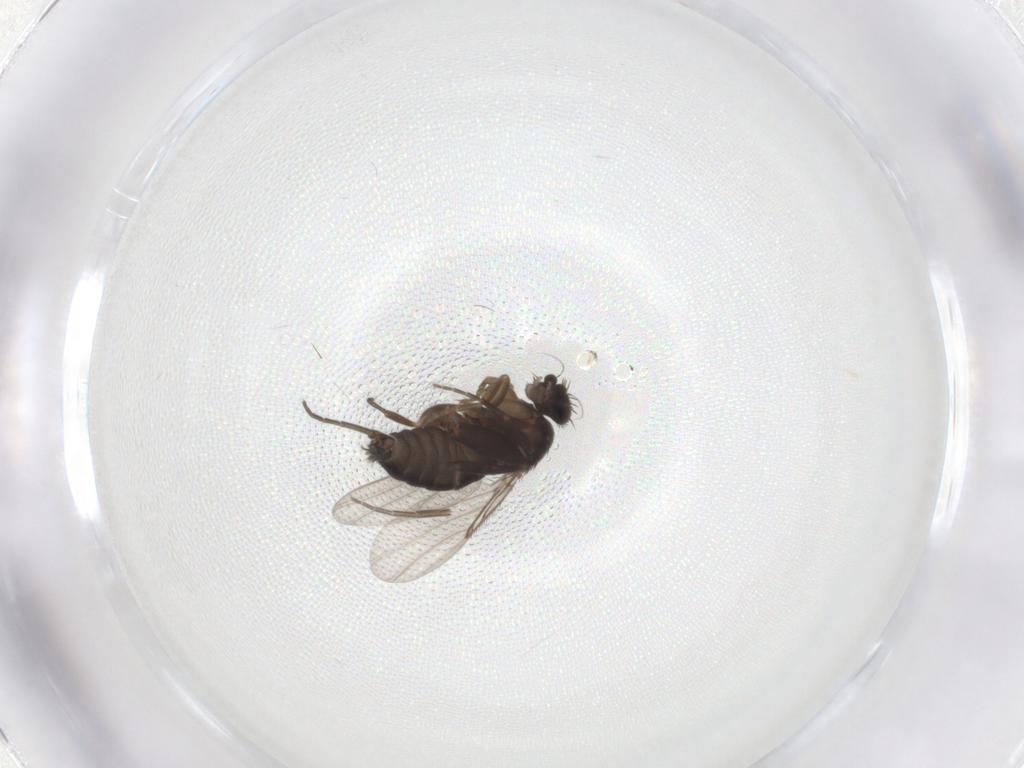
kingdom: Animalia
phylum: Arthropoda
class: Insecta
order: Diptera
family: Phoridae
